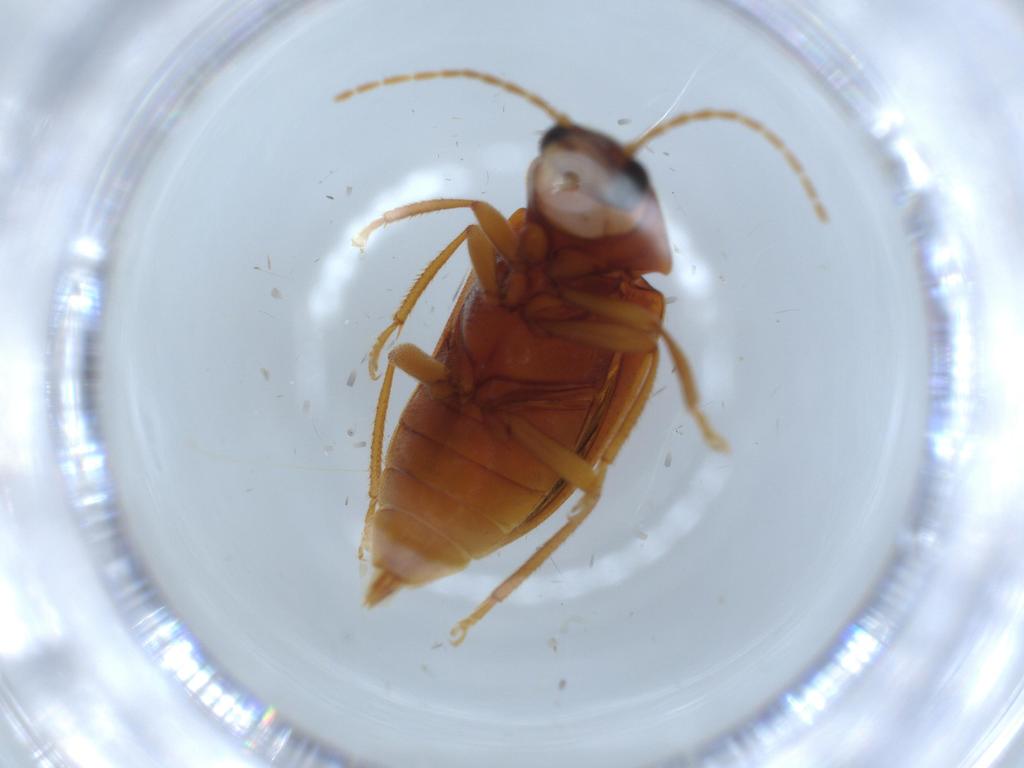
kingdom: Animalia
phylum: Arthropoda
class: Insecta
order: Coleoptera
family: Ptilodactylidae
